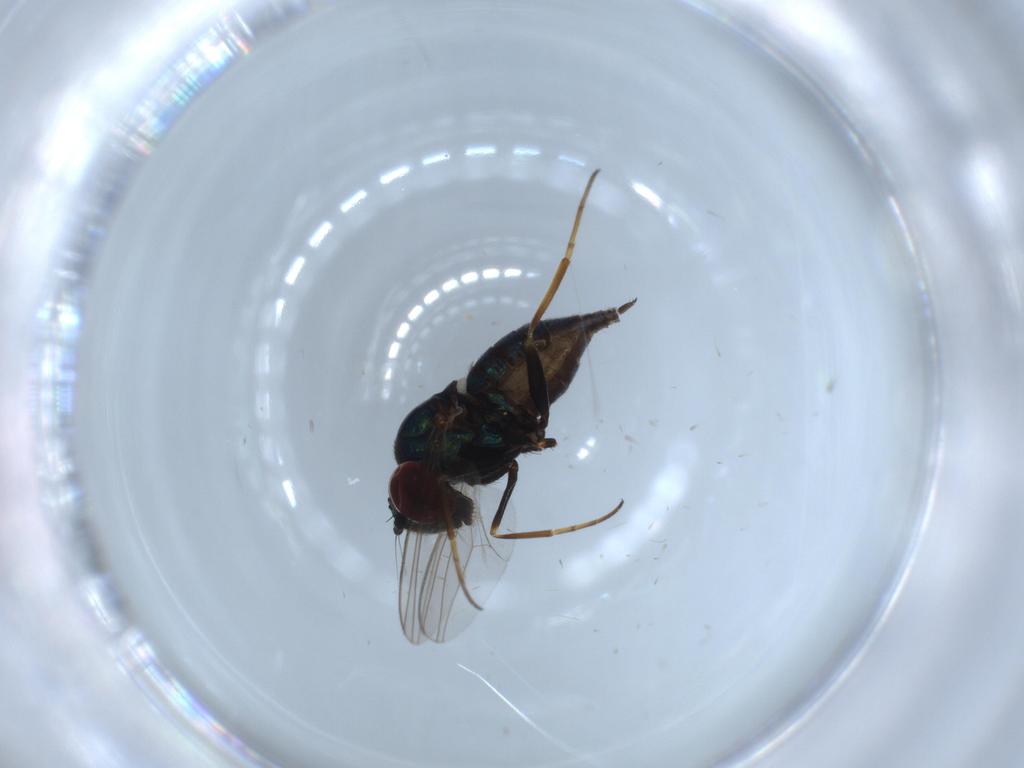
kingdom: Animalia
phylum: Arthropoda
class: Insecta
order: Diptera
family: Dolichopodidae
